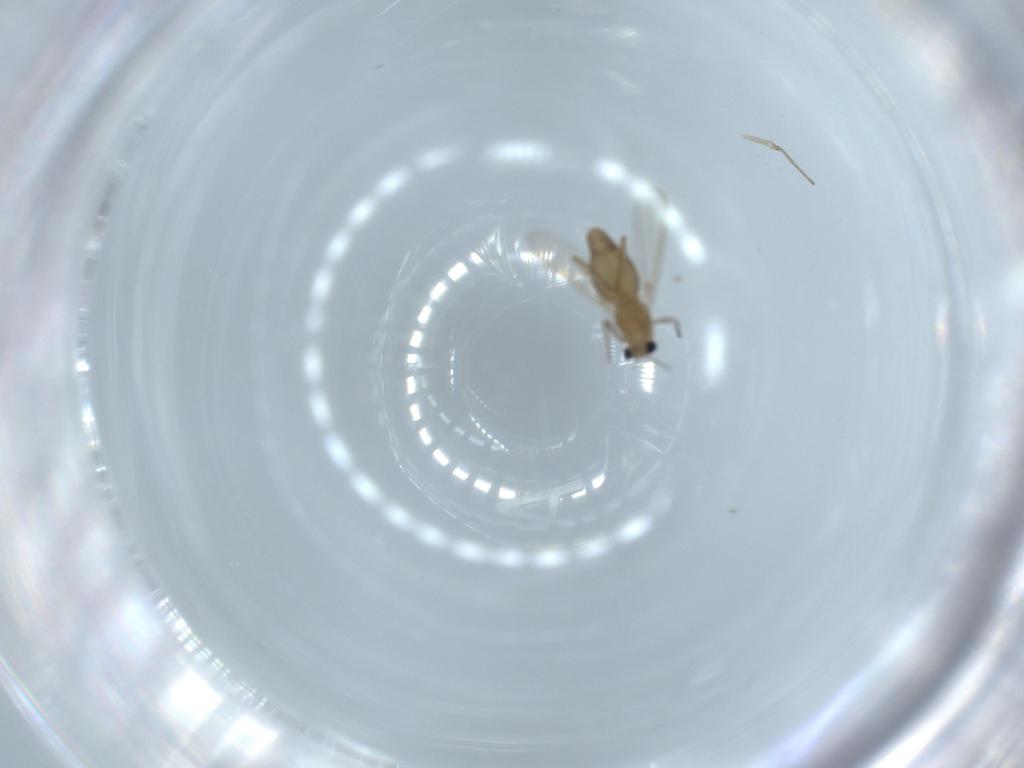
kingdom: Animalia
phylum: Arthropoda
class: Insecta
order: Diptera
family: Chironomidae
